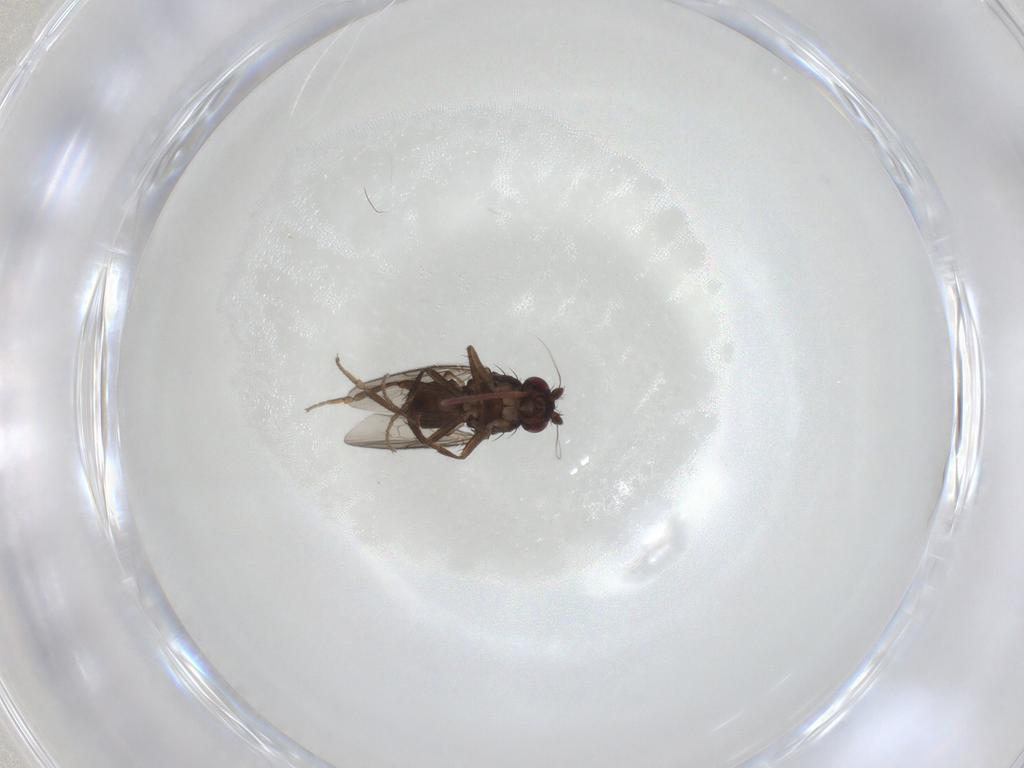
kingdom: Animalia
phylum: Arthropoda
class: Insecta
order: Diptera
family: Sphaeroceridae
